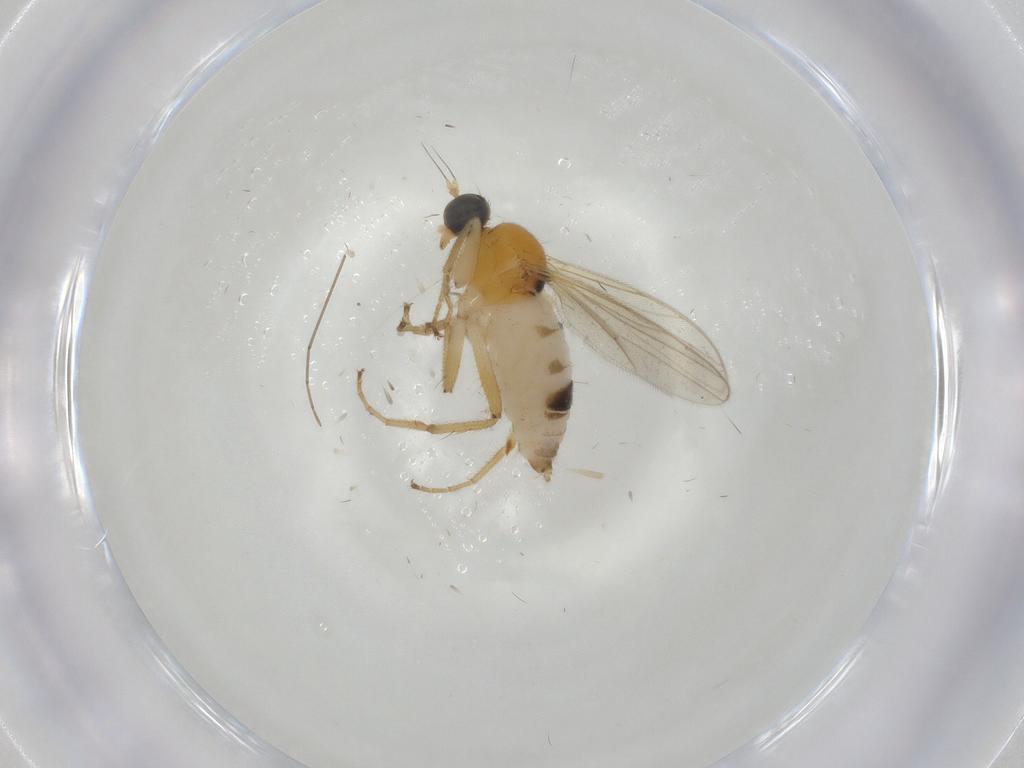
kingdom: Animalia
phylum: Arthropoda
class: Insecta
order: Diptera
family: Hybotidae
